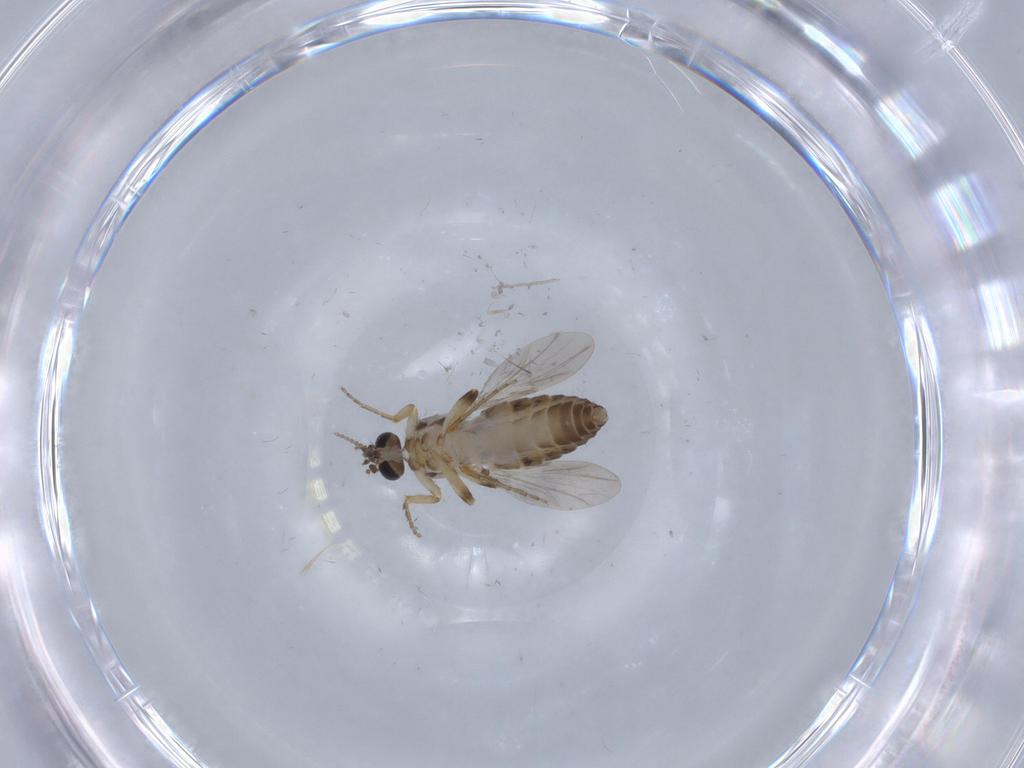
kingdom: Animalia
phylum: Arthropoda
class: Insecta
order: Diptera
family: Ceratopogonidae
